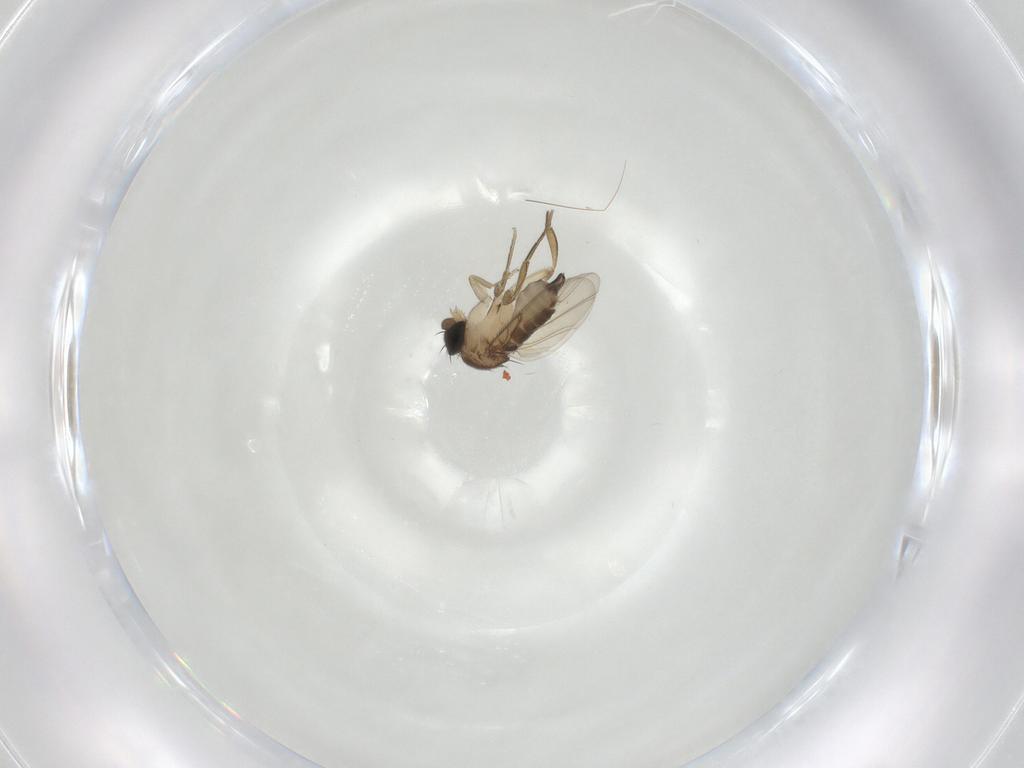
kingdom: Animalia
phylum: Arthropoda
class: Insecta
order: Diptera
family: Phoridae
